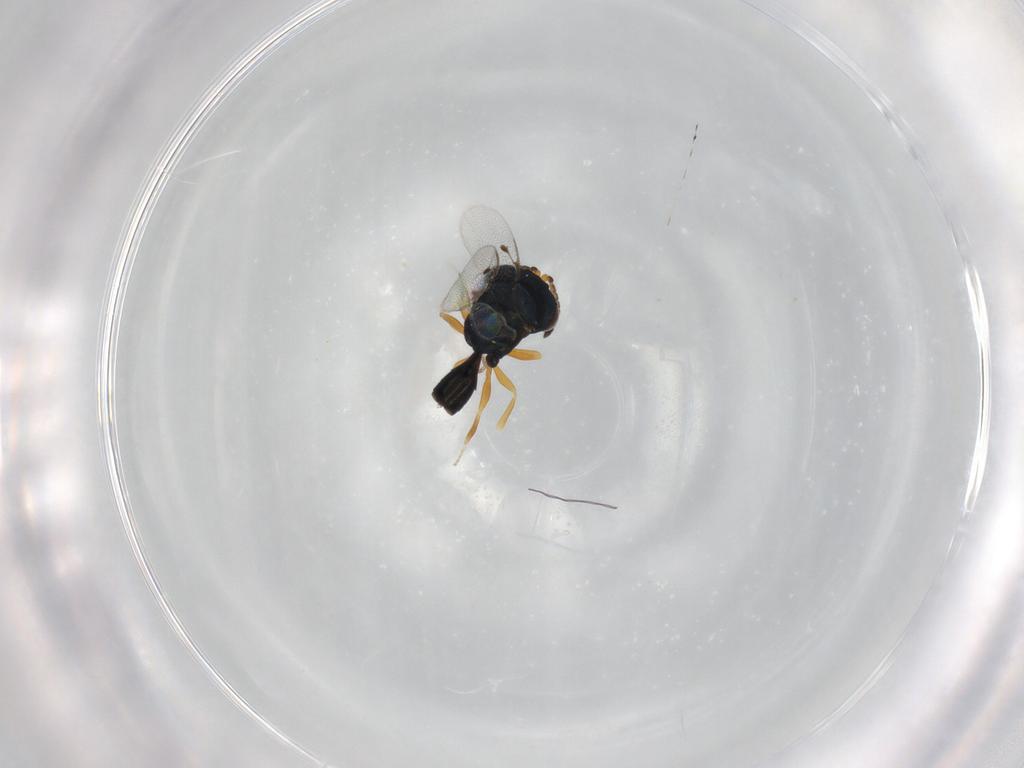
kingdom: Animalia
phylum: Arthropoda
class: Insecta
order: Hymenoptera
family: Pteromalidae
